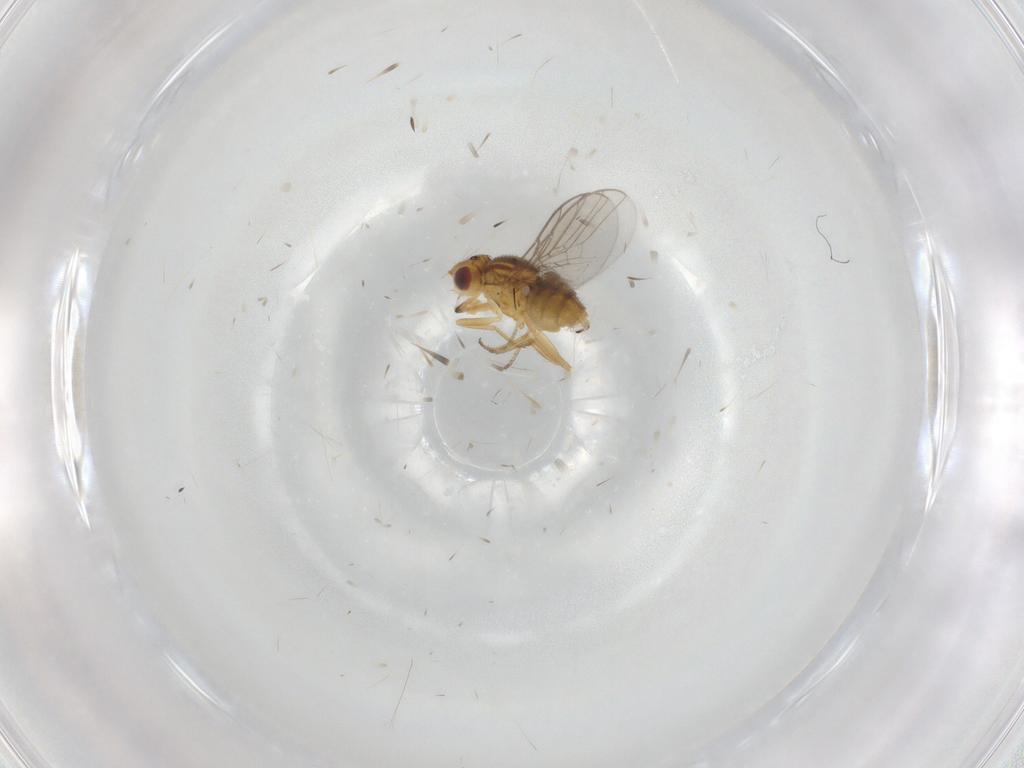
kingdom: Animalia
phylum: Arthropoda
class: Insecta
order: Diptera
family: Chloropidae
